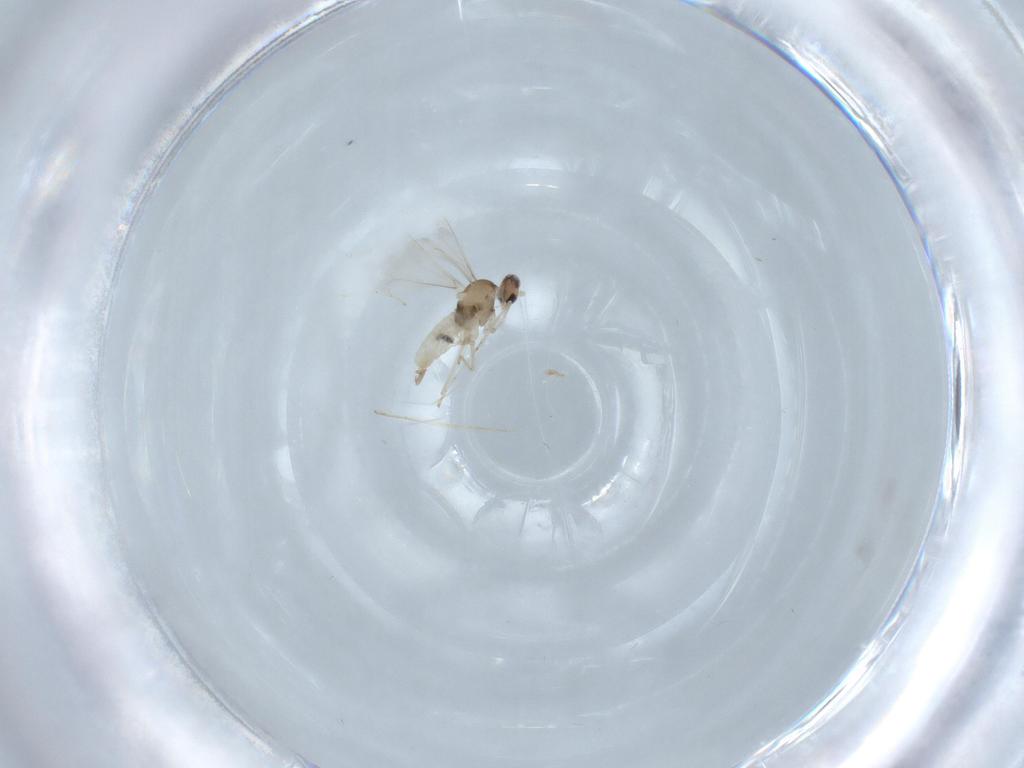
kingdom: Animalia
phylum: Arthropoda
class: Insecta
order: Diptera
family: Cecidomyiidae
